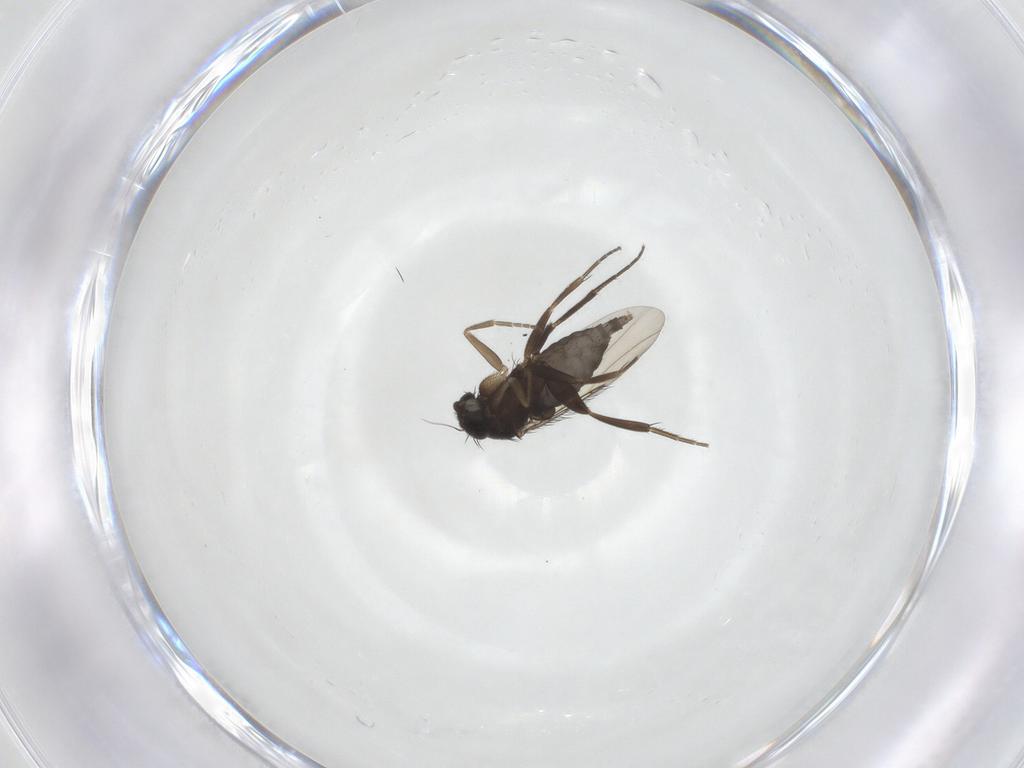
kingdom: Animalia
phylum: Arthropoda
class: Insecta
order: Diptera
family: Phoridae
